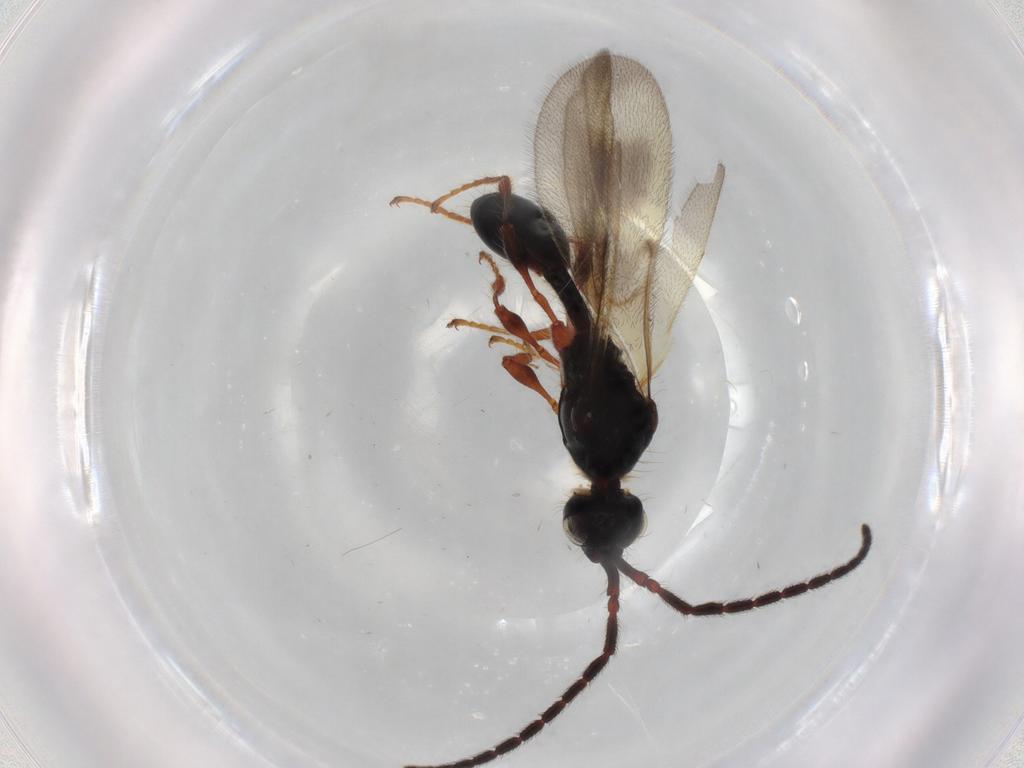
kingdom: Animalia
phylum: Arthropoda
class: Insecta
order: Hymenoptera
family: Diapriidae
